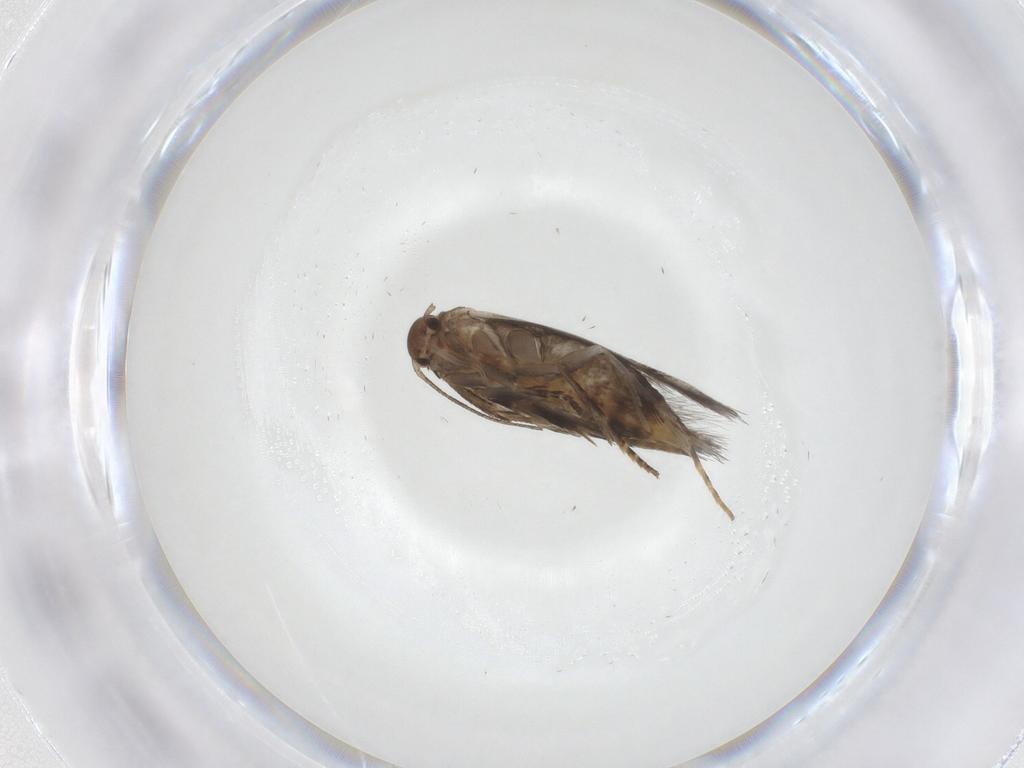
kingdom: Animalia
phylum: Arthropoda
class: Insecta
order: Lepidoptera
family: Elachistidae
